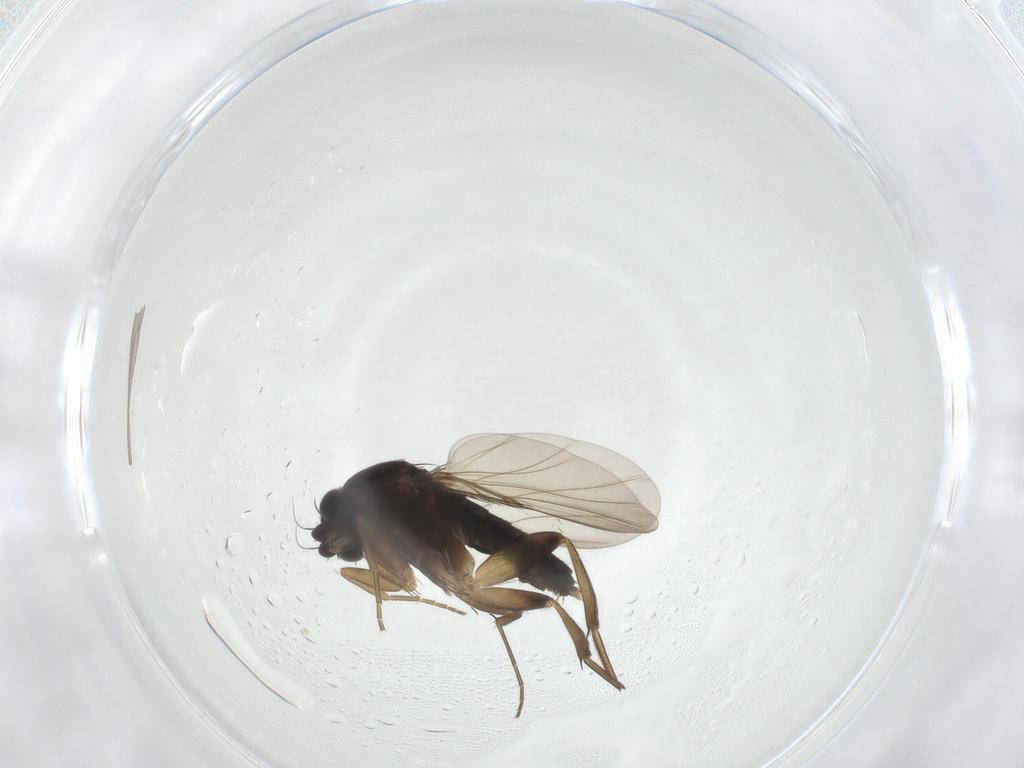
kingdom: Animalia
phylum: Arthropoda
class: Insecta
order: Diptera
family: Phoridae
